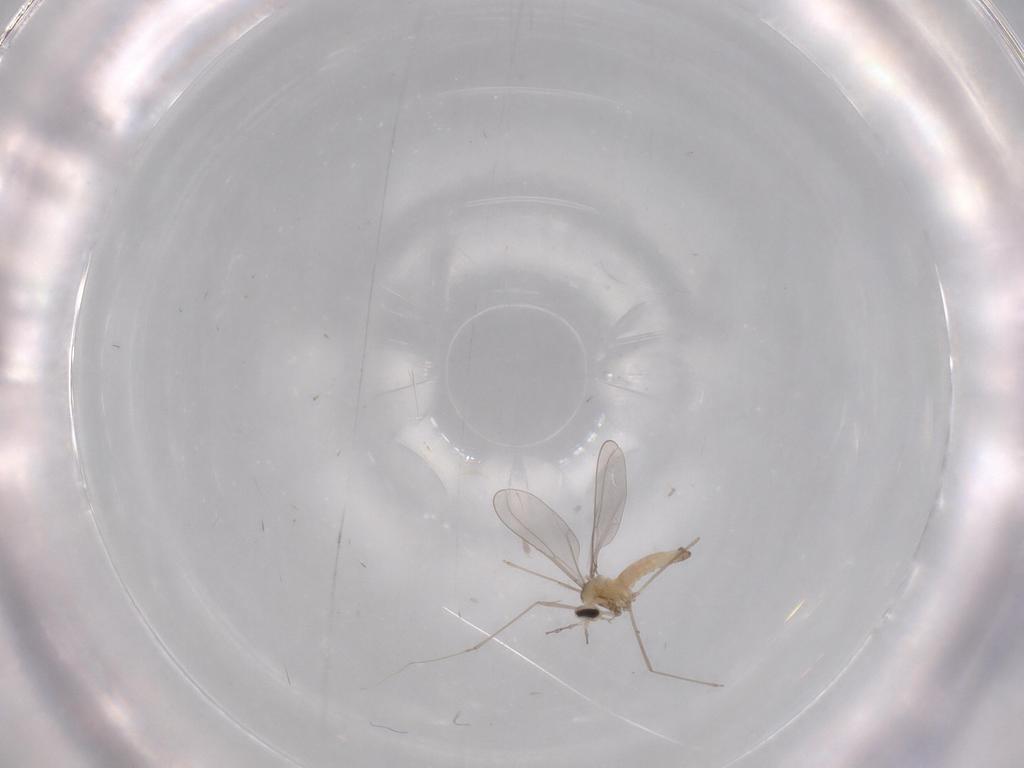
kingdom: Animalia
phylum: Arthropoda
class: Insecta
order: Diptera
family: Cecidomyiidae
